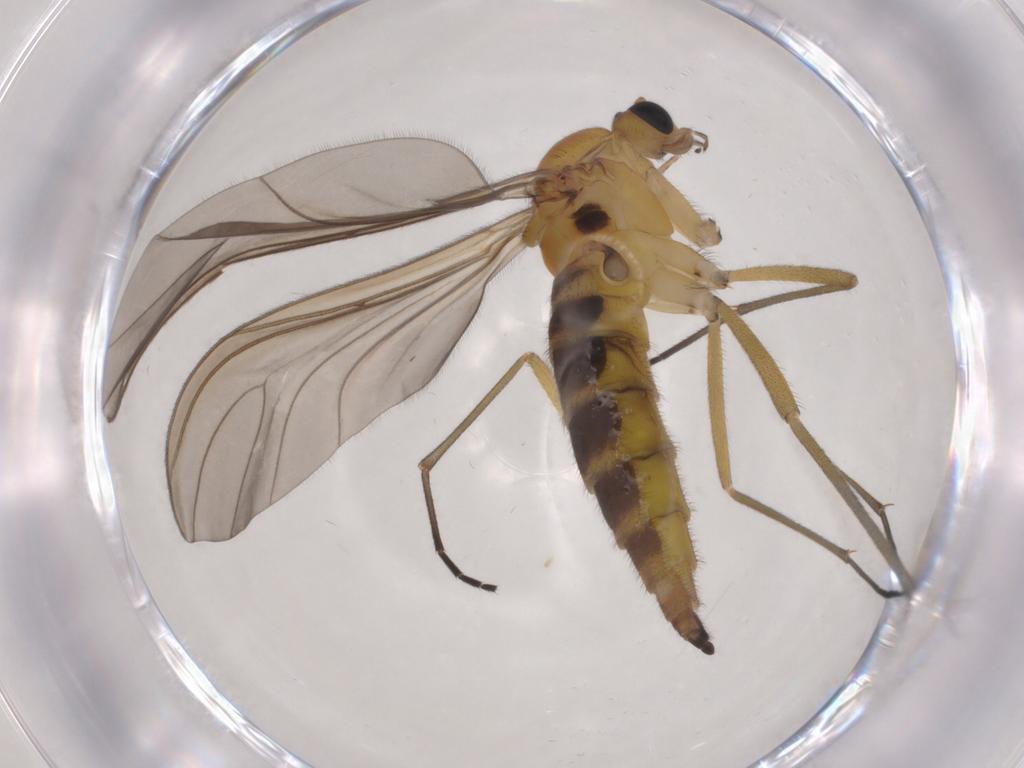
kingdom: Animalia
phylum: Arthropoda
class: Insecta
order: Diptera
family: Sciaridae
